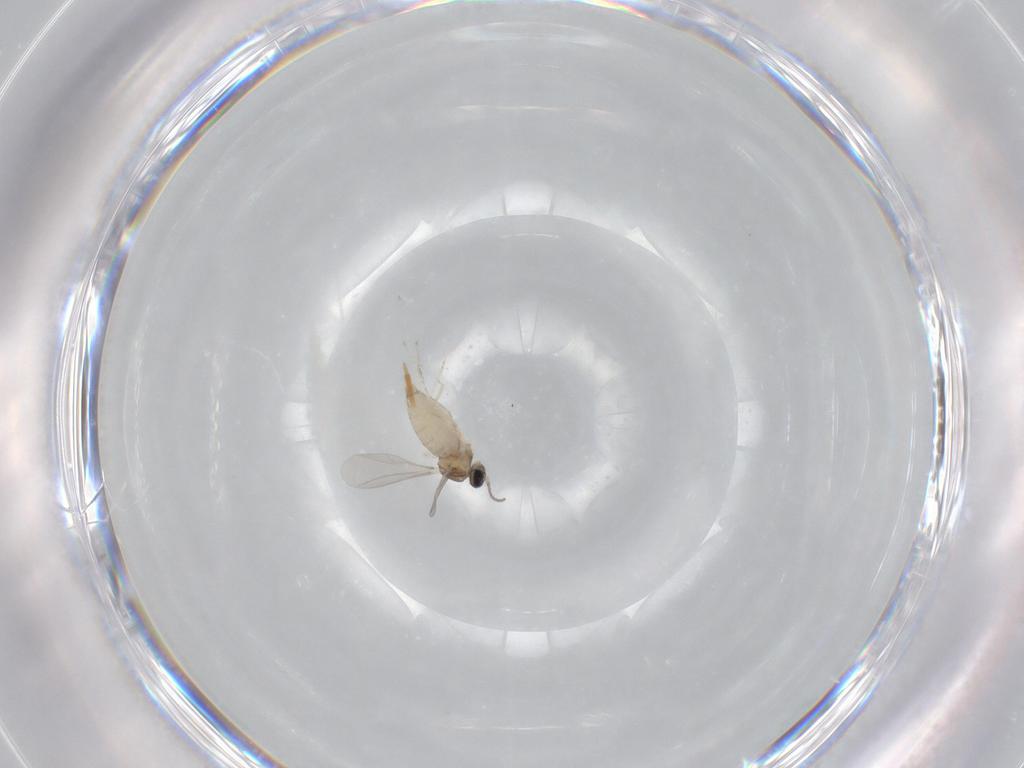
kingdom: Animalia
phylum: Arthropoda
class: Insecta
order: Diptera
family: Cecidomyiidae
